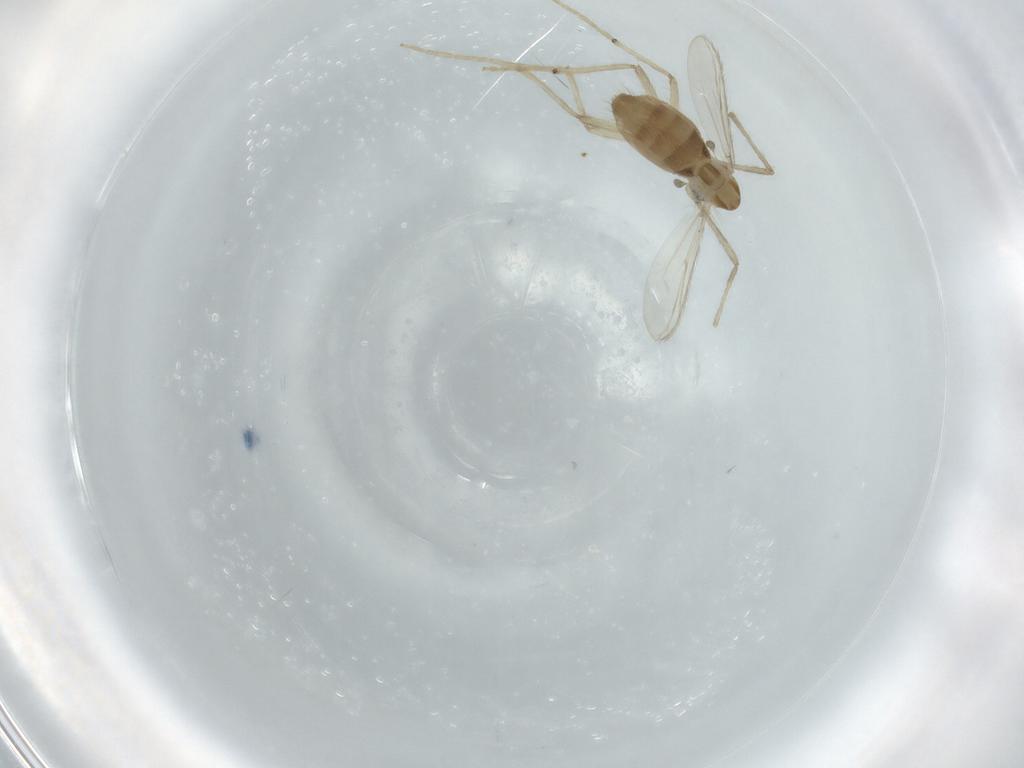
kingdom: Animalia
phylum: Arthropoda
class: Insecta
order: Diptera
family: Chironomidae
